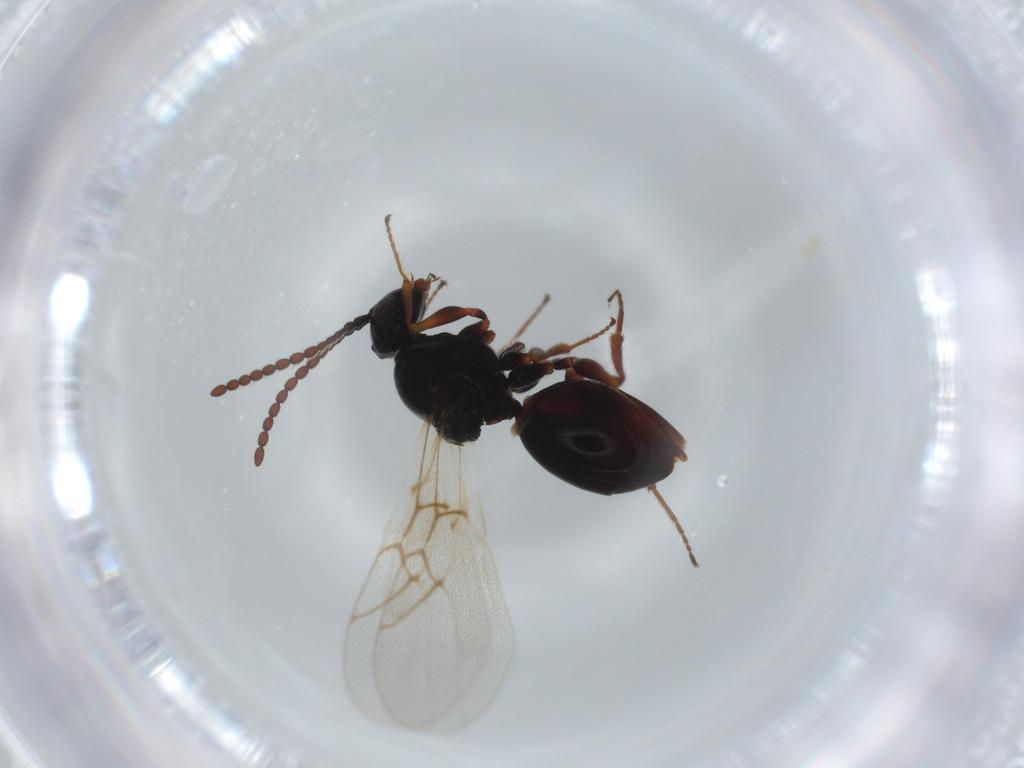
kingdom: Animalia
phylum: Arthropoda
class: Insecta
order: Hymenoptera
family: Figitidae
